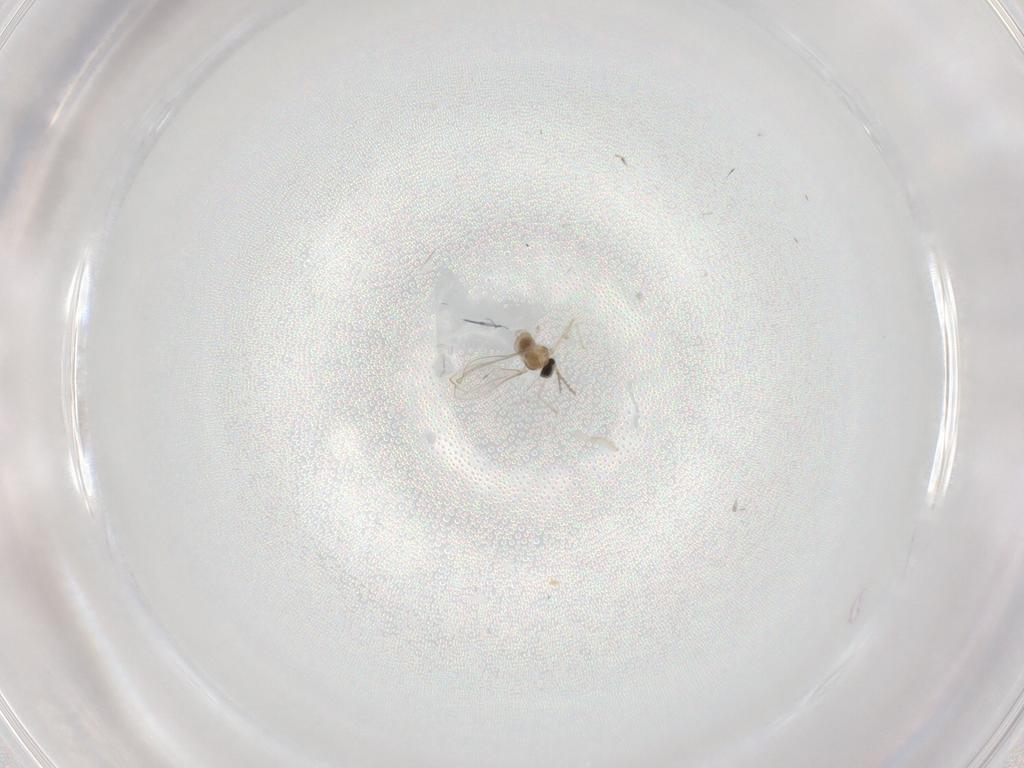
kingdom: Animalia
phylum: Arthropoda
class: Insecta
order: Diptera
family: Cecidomyiidae
